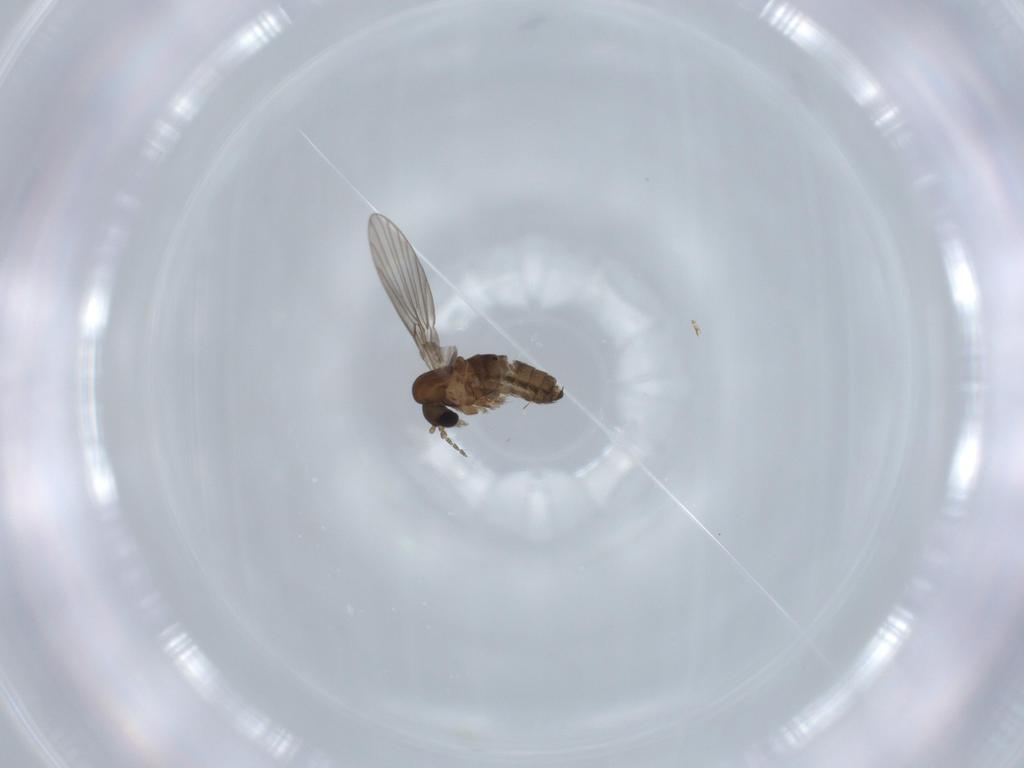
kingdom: Animalia
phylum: Arthropoda
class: Insecta
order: Diptera
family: Psychodidae
